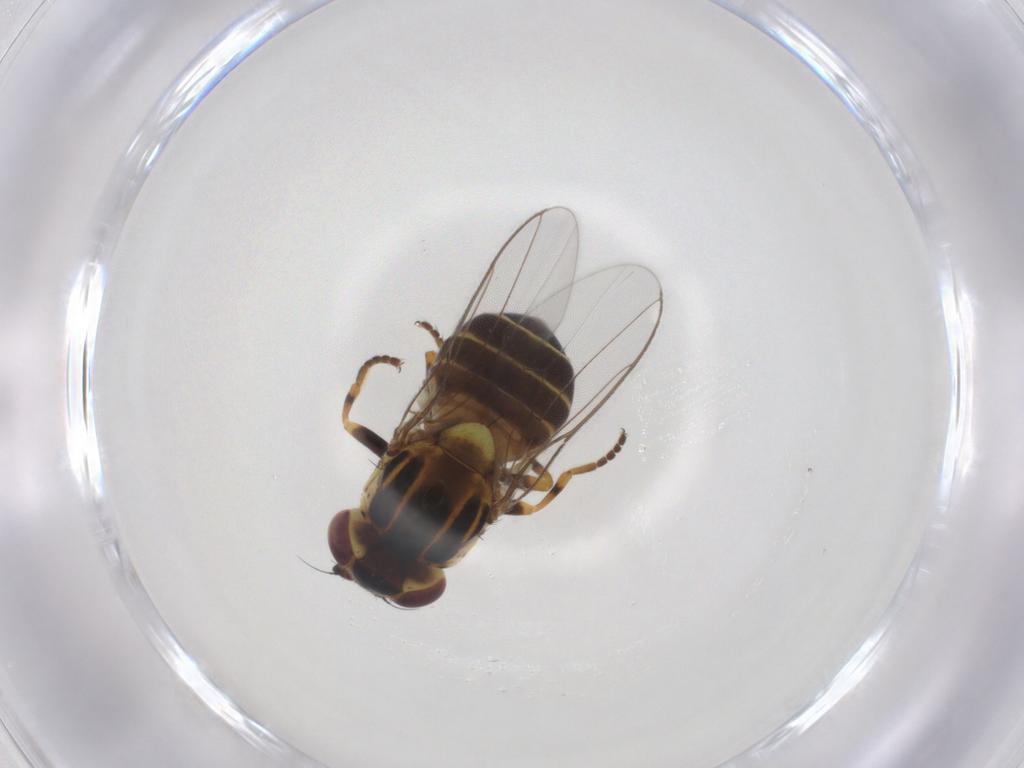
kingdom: Animalia
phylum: Arthropoda
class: Insecta
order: Diptera
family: Chloropidae
